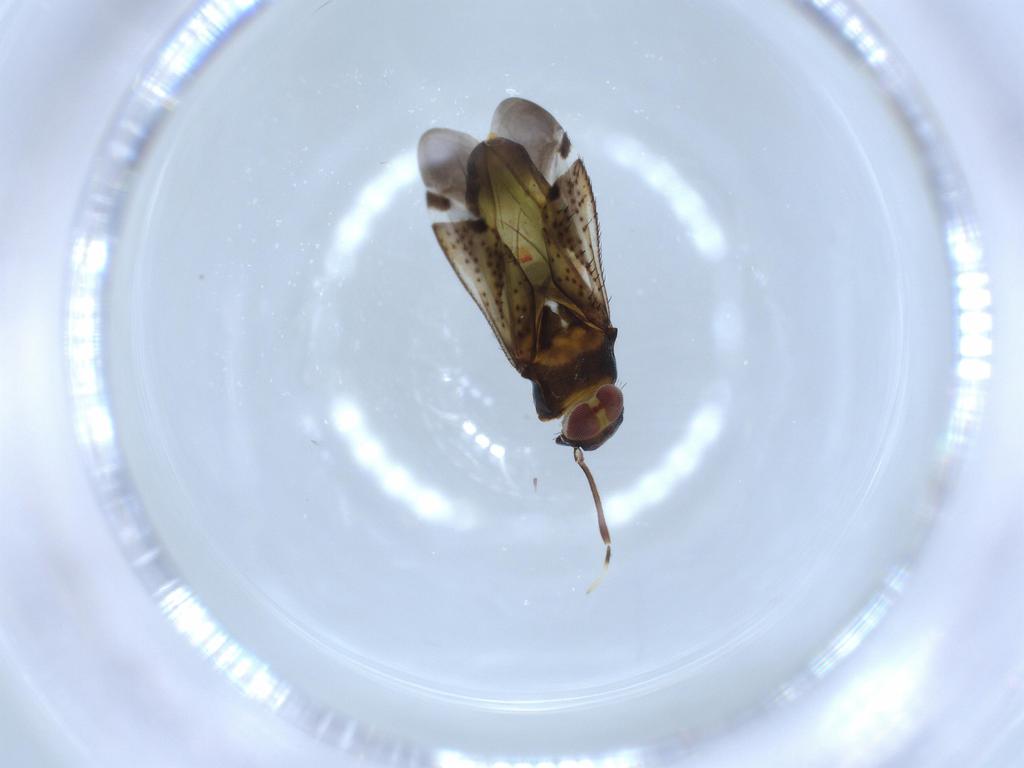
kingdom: Animalia
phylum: Arthropoda
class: Insecta
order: Hemiptera
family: Miridae
